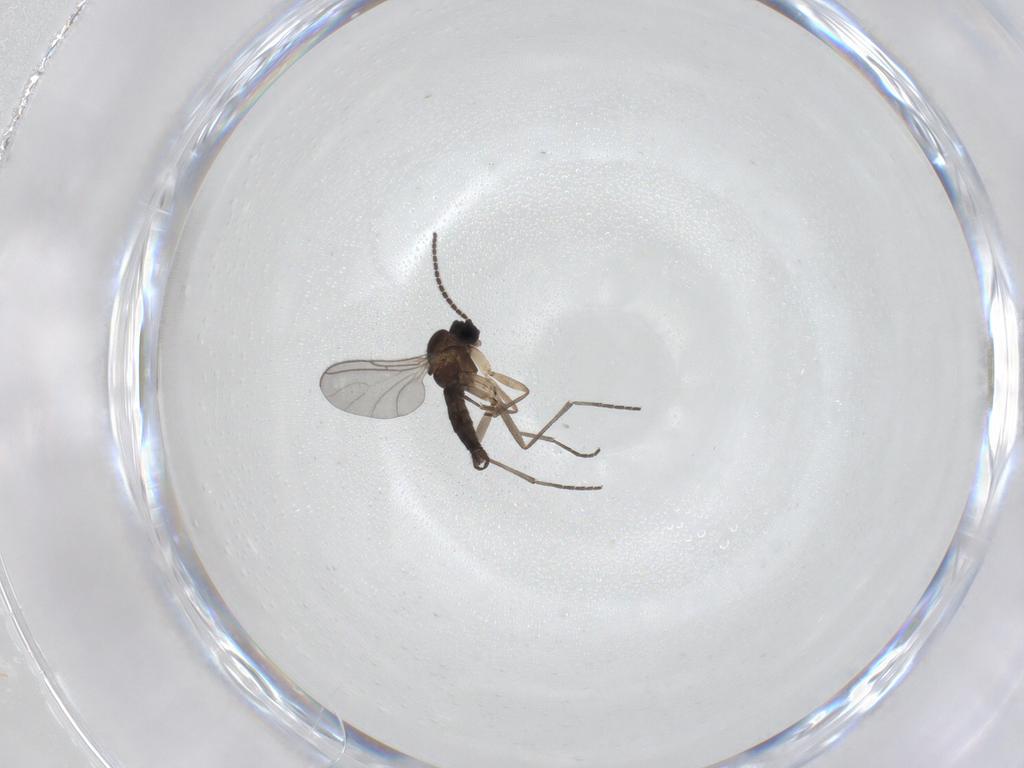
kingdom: Animalia
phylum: Arthropoda
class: Insecta
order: Diptera
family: Sciaridae
